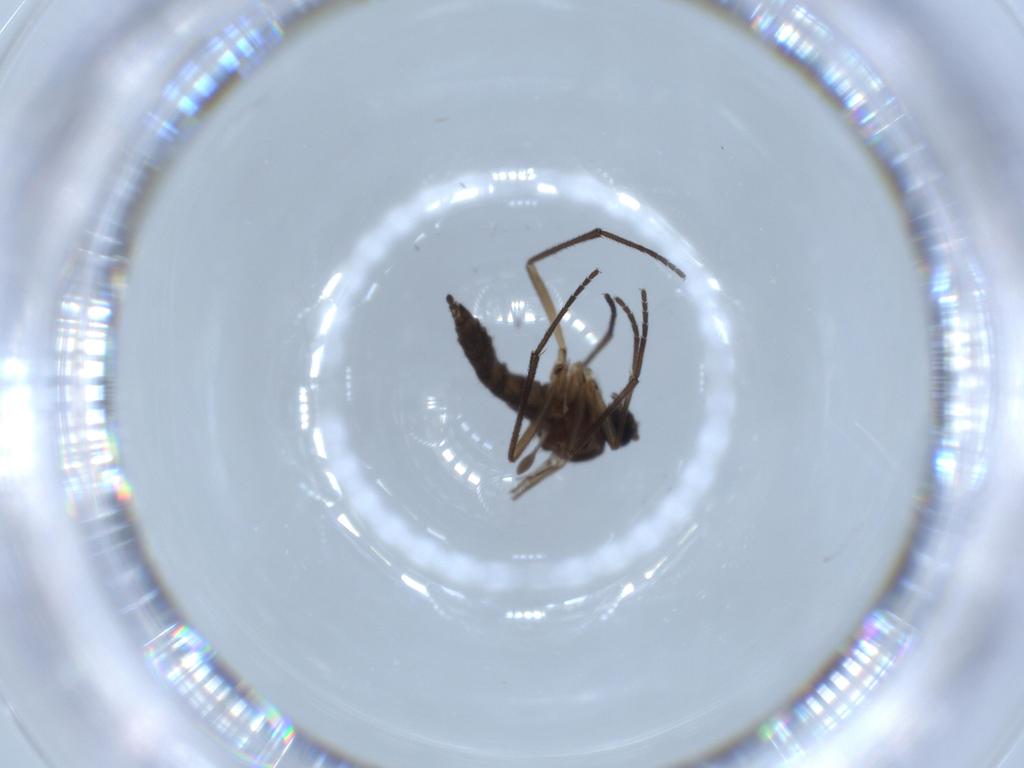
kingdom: Animalia
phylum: Arthropoda
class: Insecta
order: Diptera
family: Sciaridae
